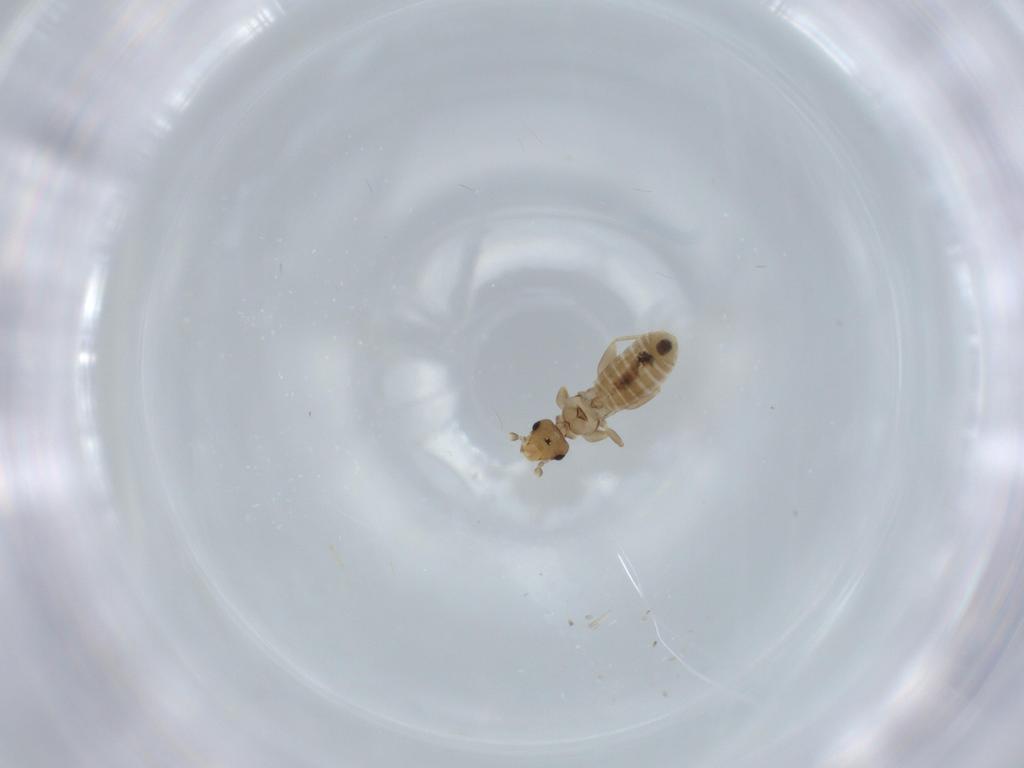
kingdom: Animalia
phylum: Arthropoda
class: Insecta
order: Psocodea
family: Liposcelididae
